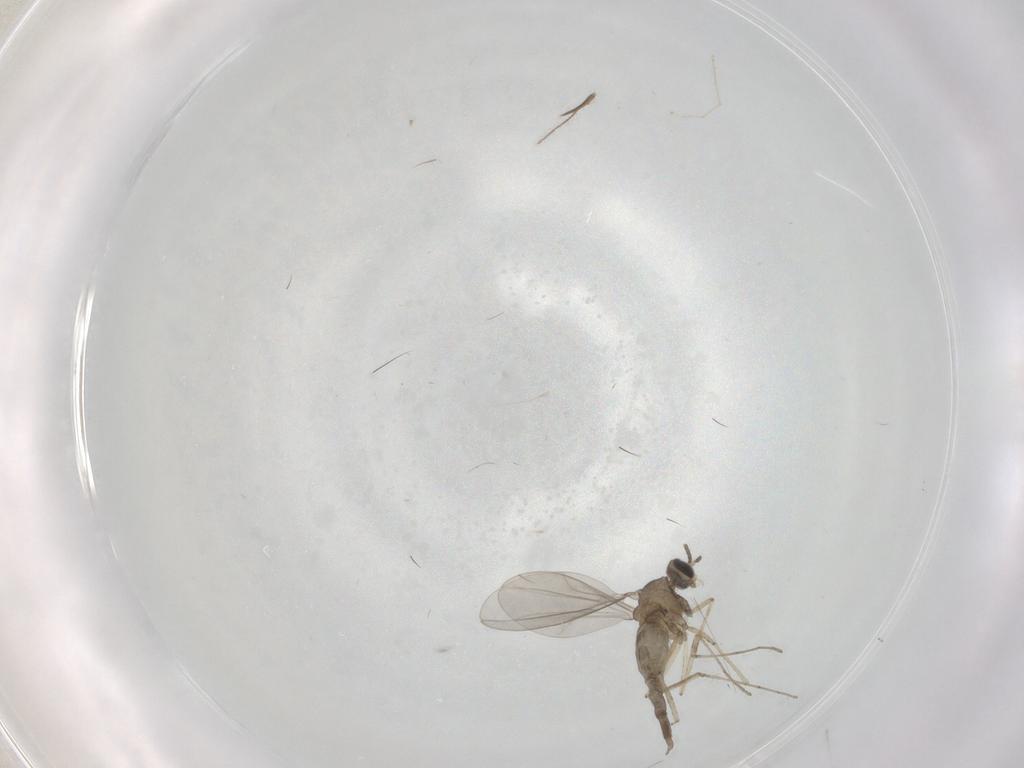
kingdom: Animalia
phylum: Arthropoda
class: Insecta
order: Diptera
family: Cecidomyiidae
